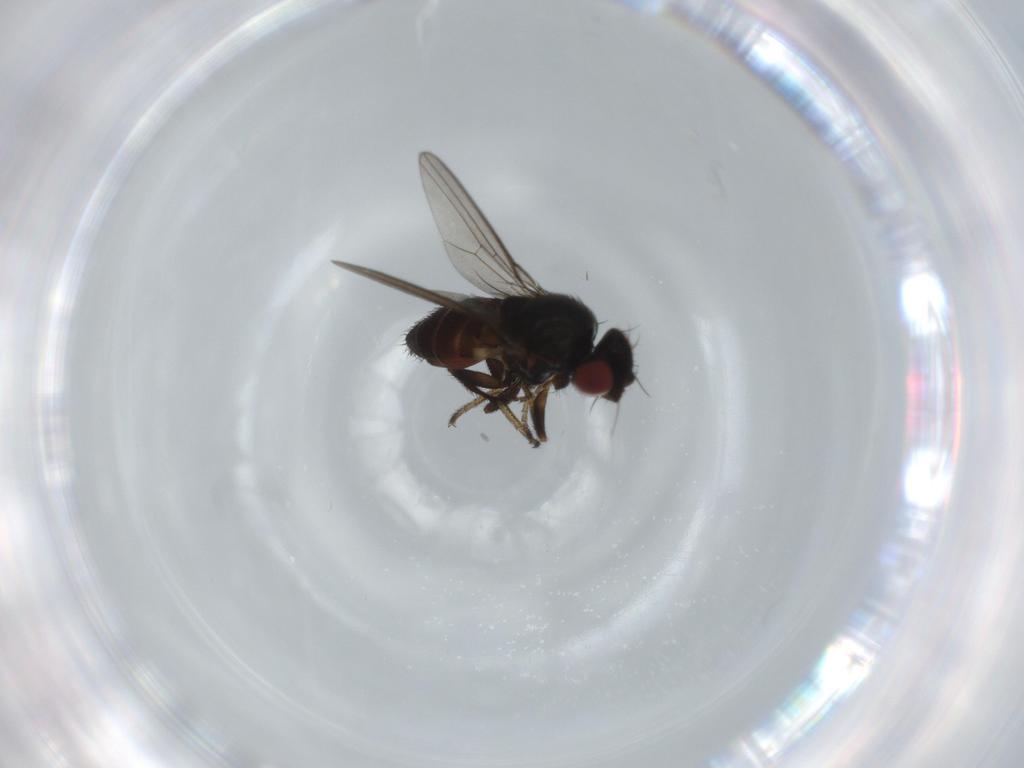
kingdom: Animalia
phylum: Arthropoda
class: Insecta
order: Diptera
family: Milichiidae
